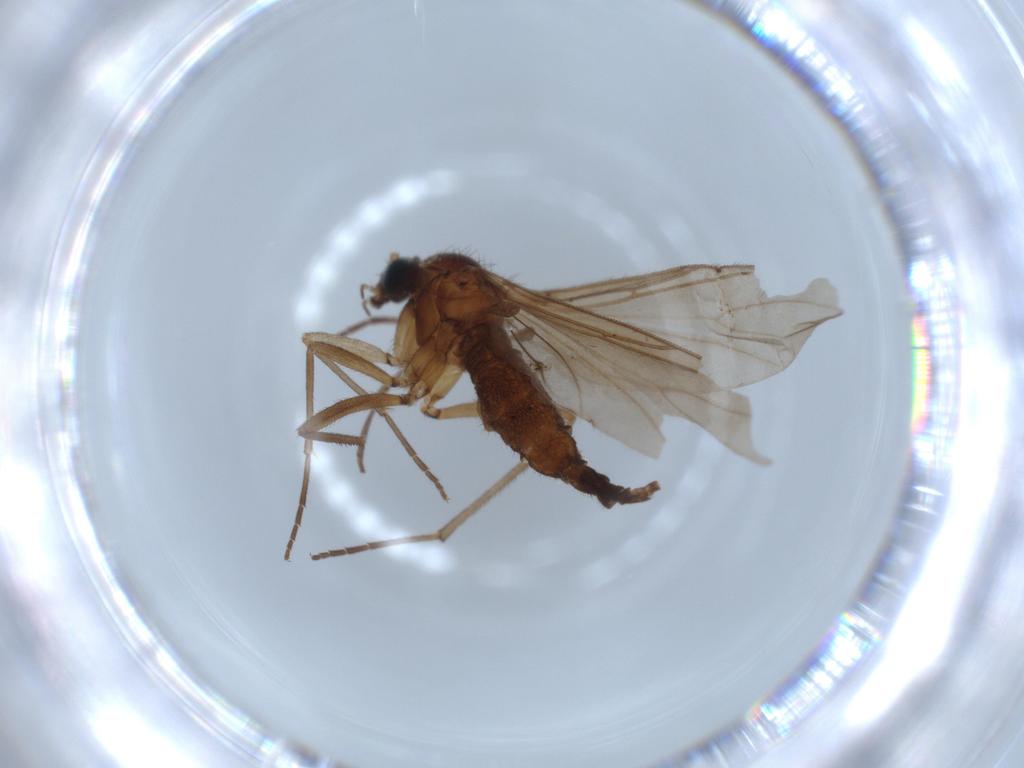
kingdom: Animalia
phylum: Arthropoda
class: Insecta
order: Diptera
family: Sciaridae
